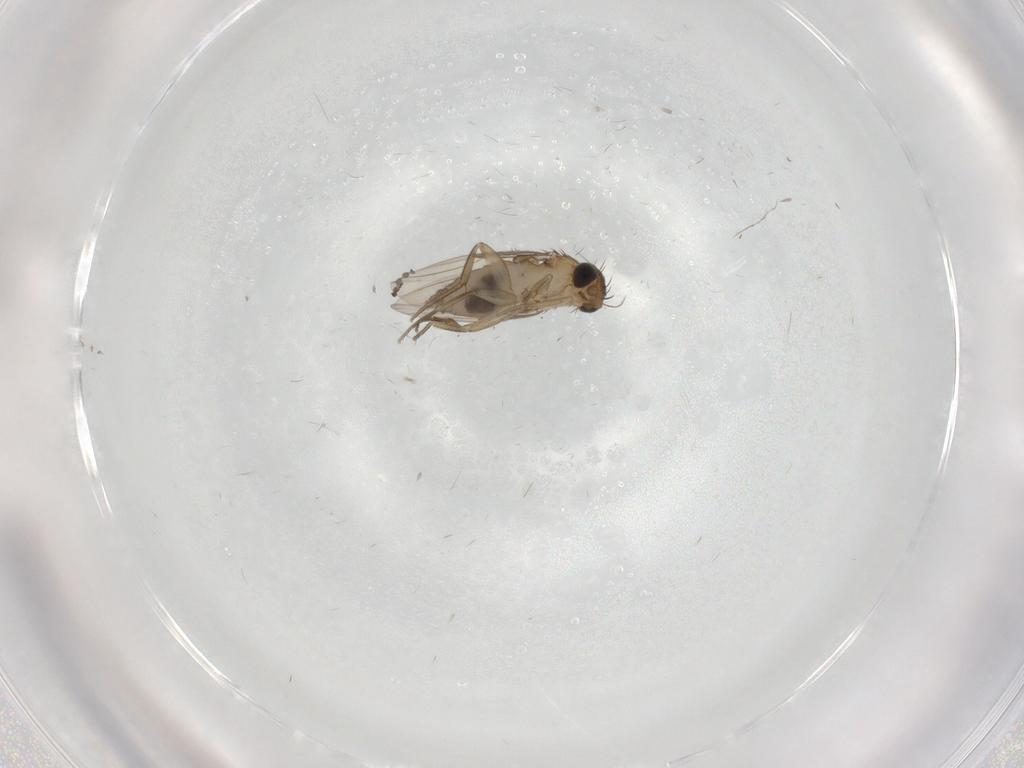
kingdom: Animalia
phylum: Arthropoda
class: Insecta
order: Diptera
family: Phoridae
